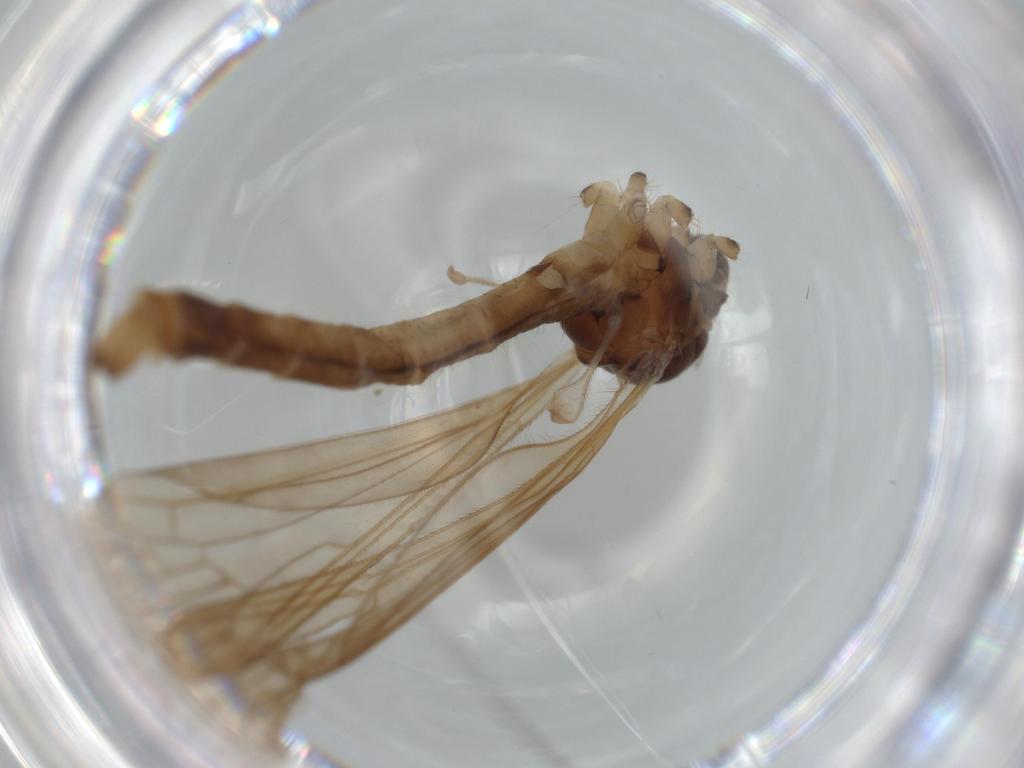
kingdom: Animalia
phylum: Arthropoda
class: Insecta
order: Diptera
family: Limoniidae
